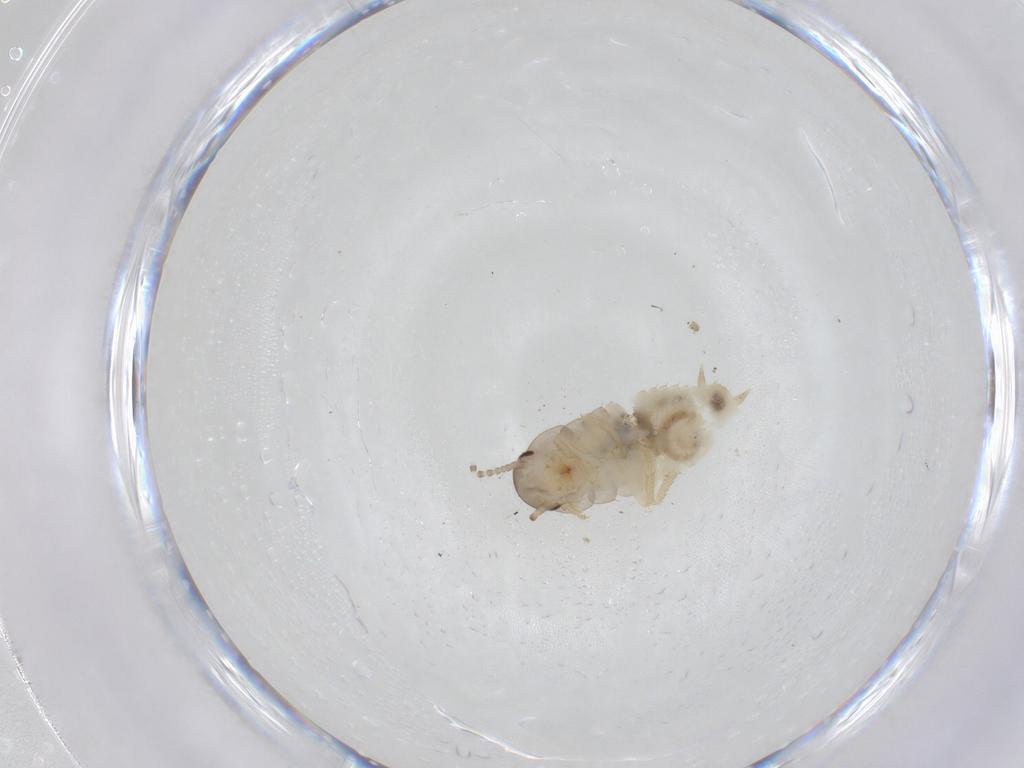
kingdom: Animalia
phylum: Arthropoda
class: Insecta
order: Blattodea
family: Ectobiidae
